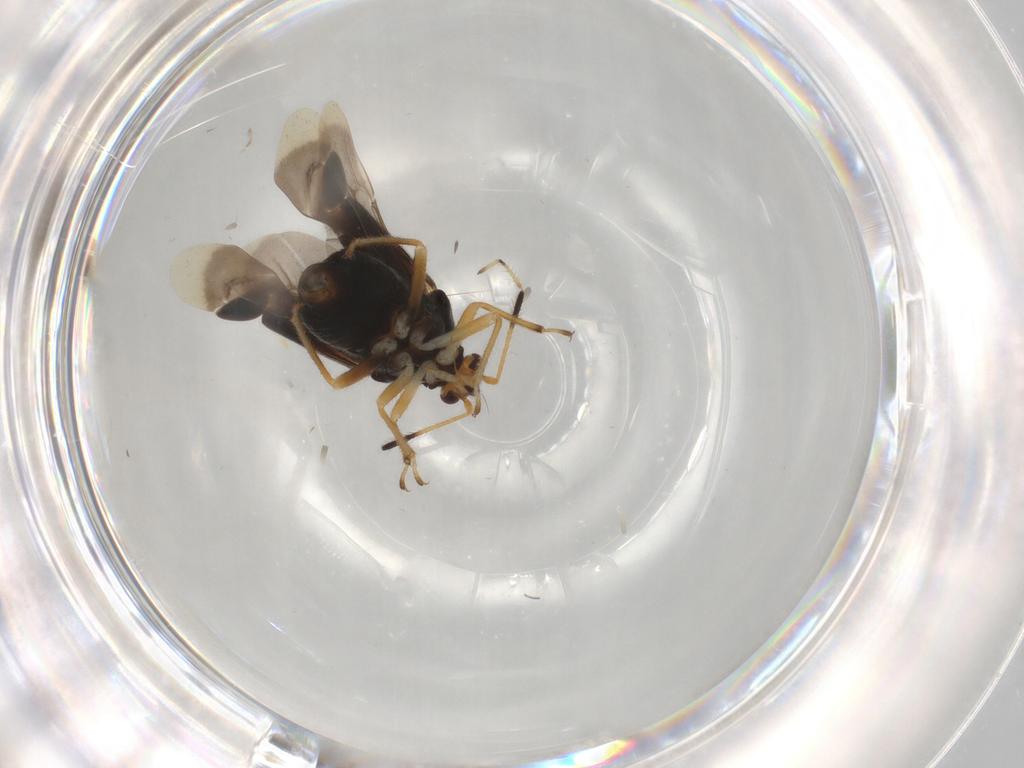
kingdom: Animalia
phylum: Arthropoda
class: Insecta
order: Hemiptera
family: Miridae
